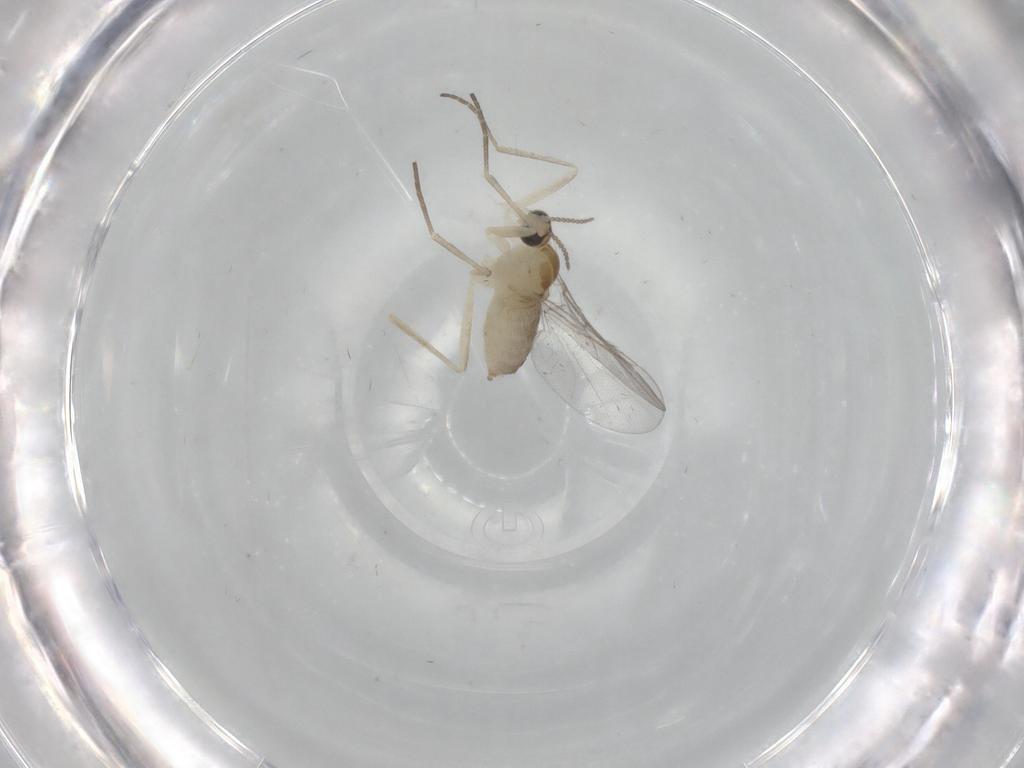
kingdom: Animalia
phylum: Arthropoda
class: Insecta
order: Diptera
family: Cecidomyiidae
